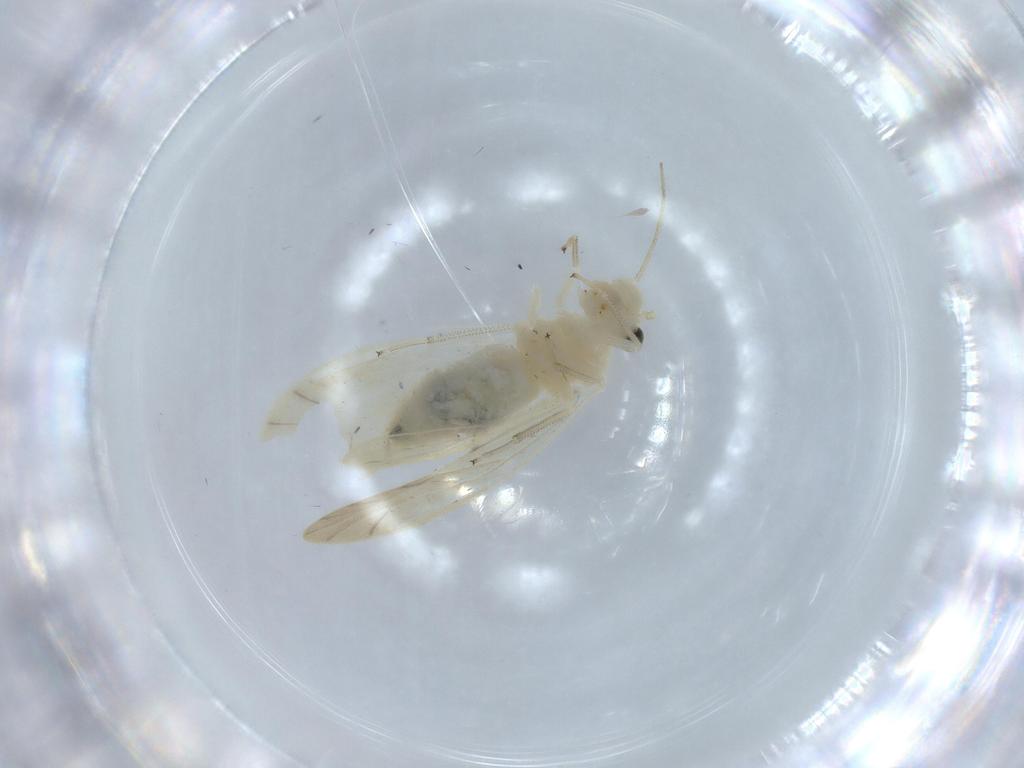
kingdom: Animalia
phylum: Arthropoda
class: Insecta
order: Psocodea
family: Caeciliusidae
